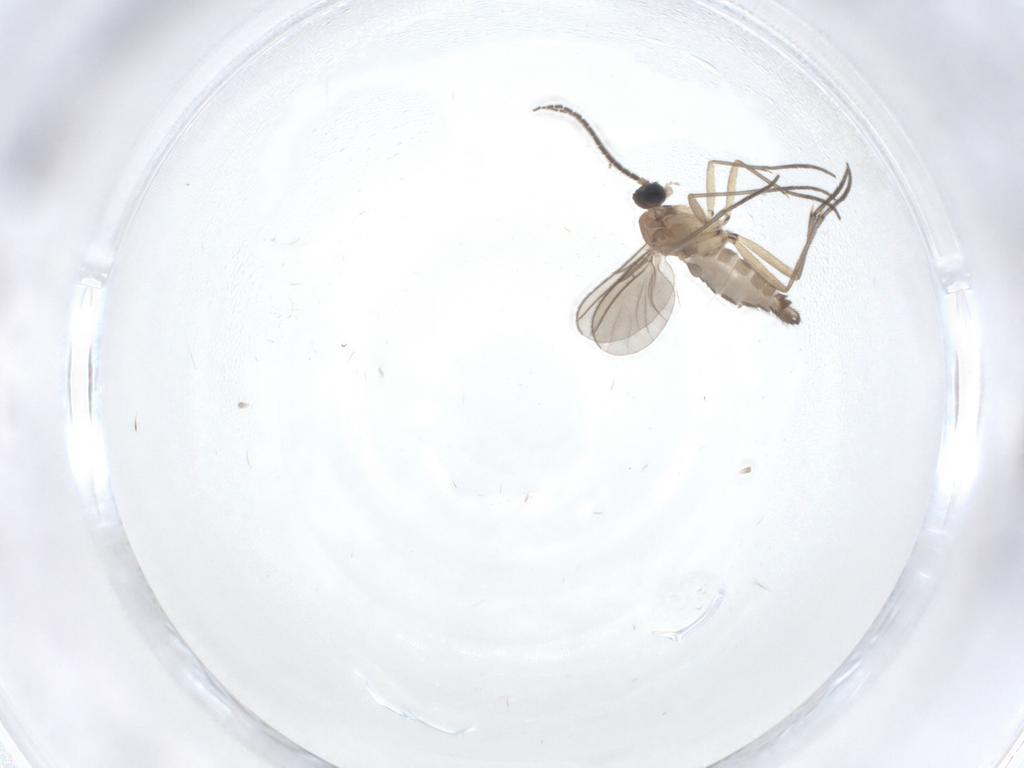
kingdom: Animalia
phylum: Arthropoda
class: Insecta
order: Diptera
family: Sciaridae
